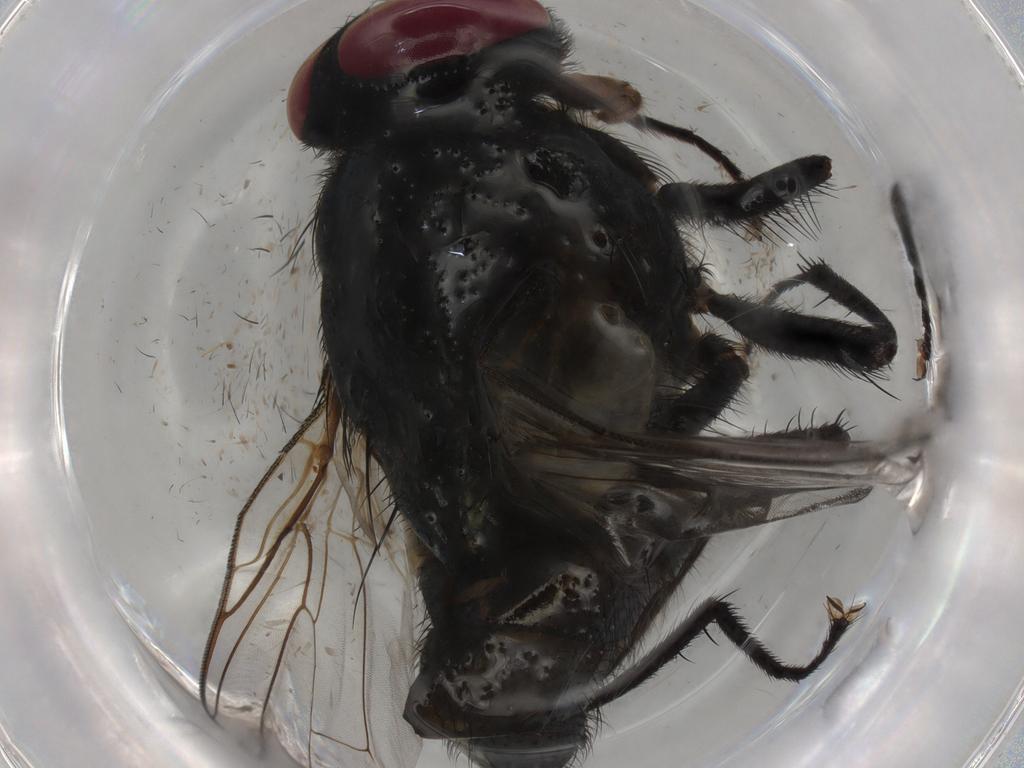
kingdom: Animalia
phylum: Arthropoda
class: Insecta
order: Diptera
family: Muscidae
